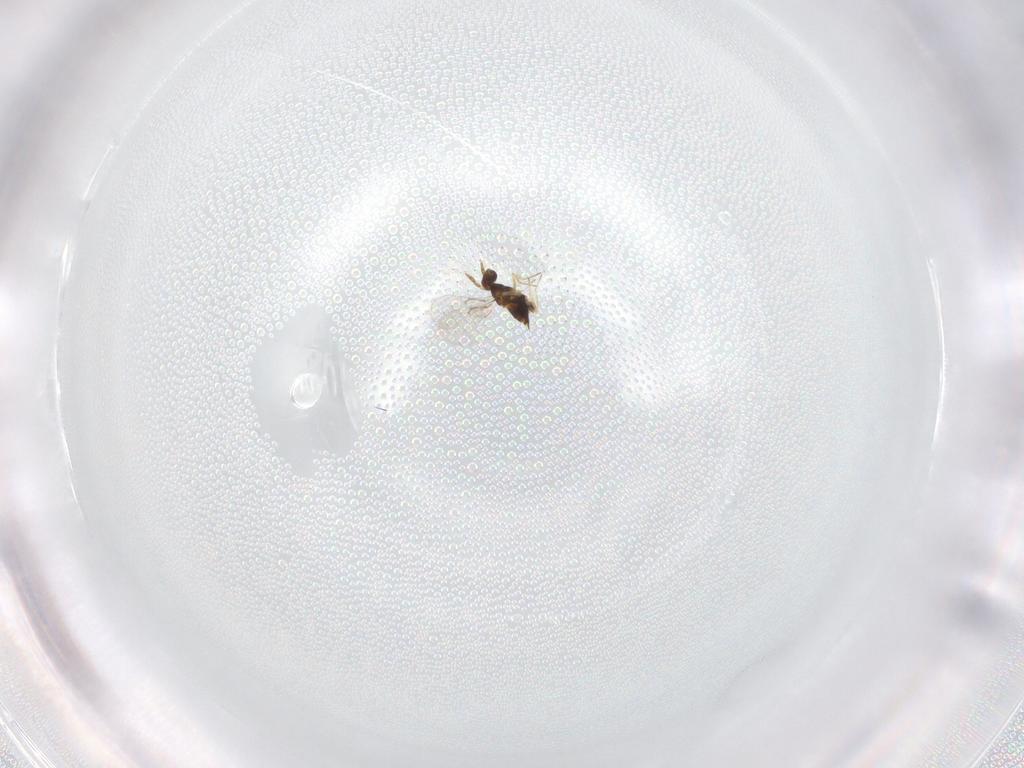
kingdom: Animalia
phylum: Arthropoda
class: Insecta
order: Hymenoptera
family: Trichogrammatidae
